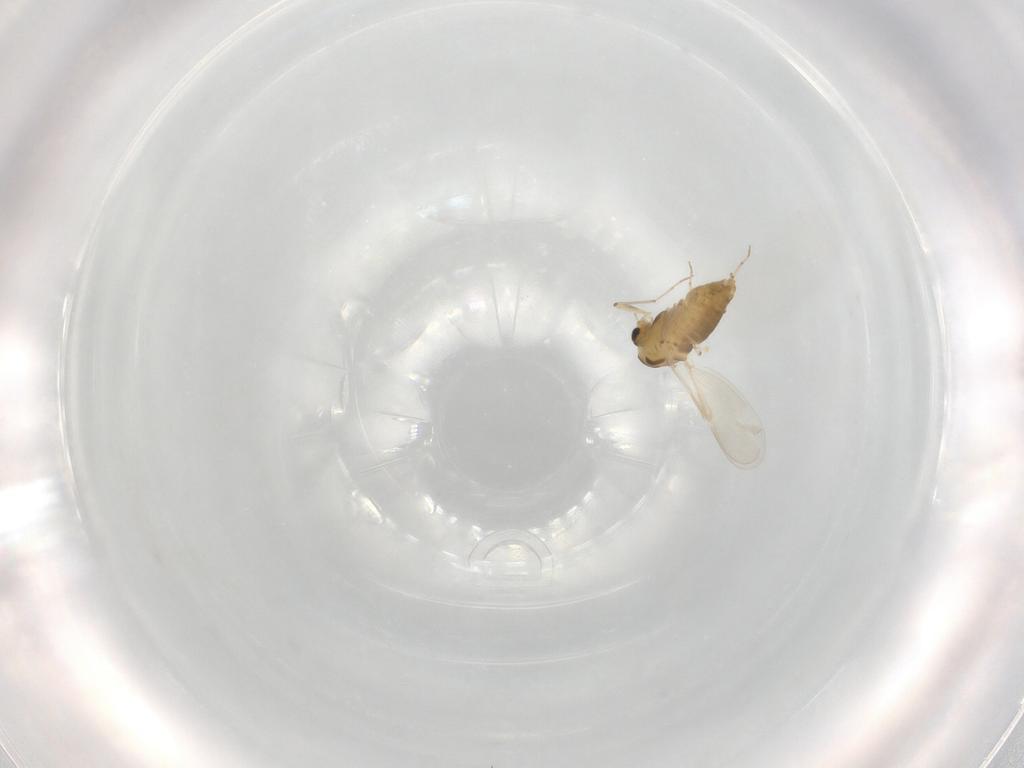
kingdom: Animalia
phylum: Arthropoda
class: Insecta
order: Diptera
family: Chironomidae
